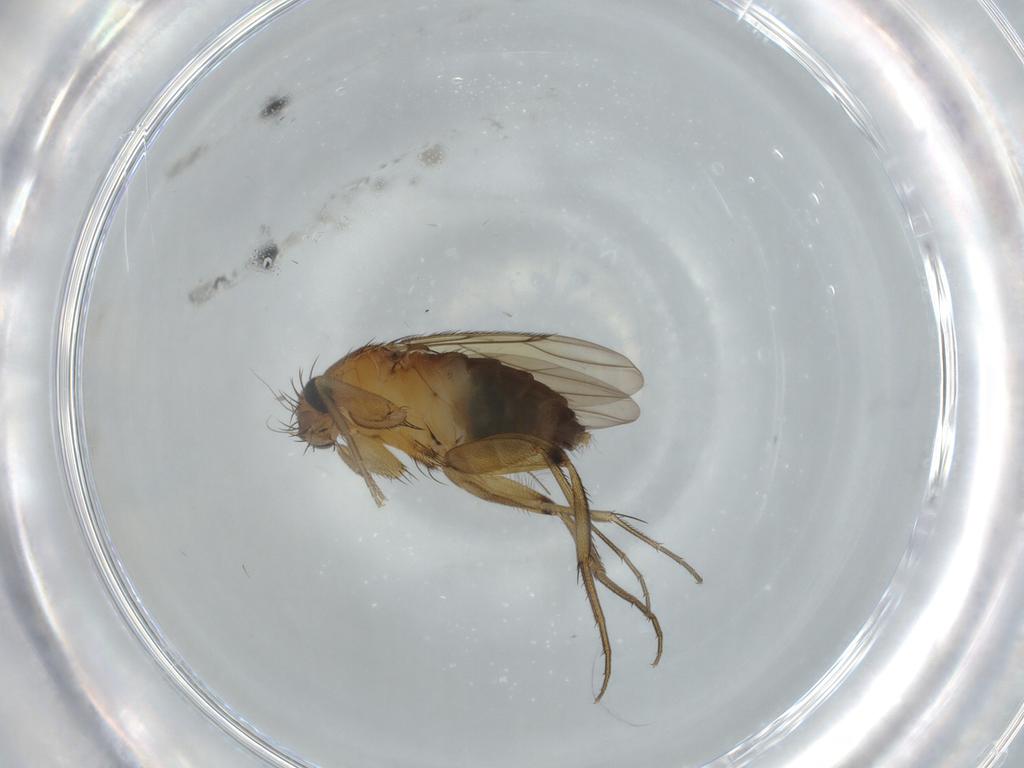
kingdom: Animalia
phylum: Arthropoda
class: Insecta
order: Diptera
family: Phoridae
